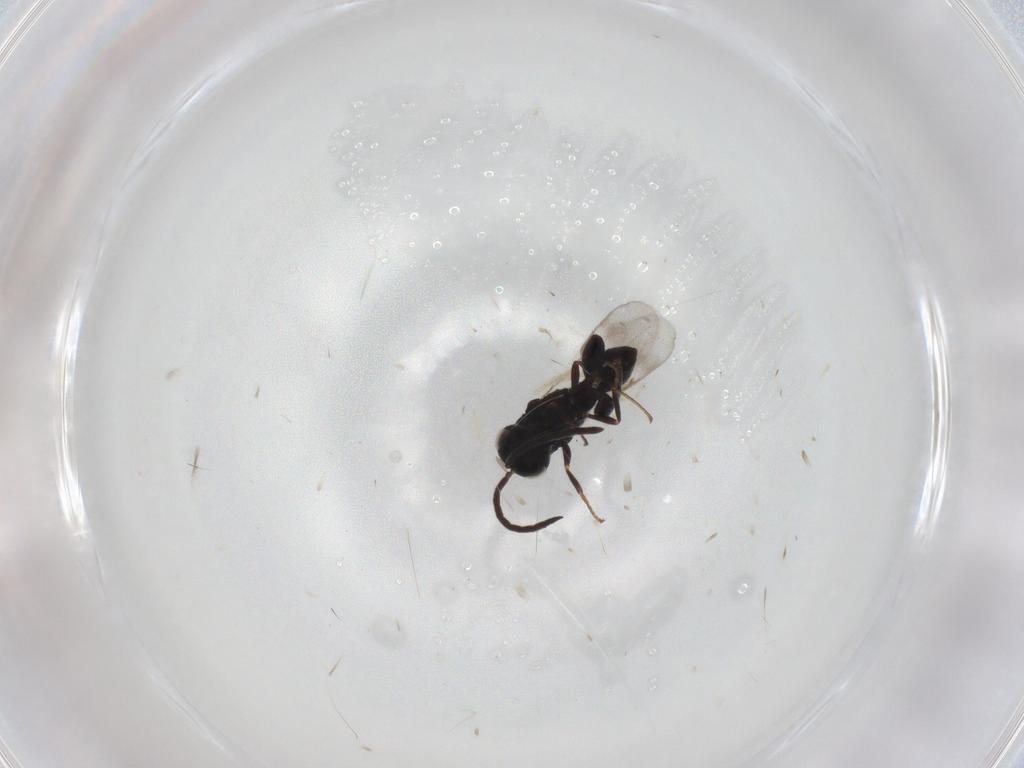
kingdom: Animalia
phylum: Arthropoda
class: Insecta
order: Hymenoptera
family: Chalcididae
